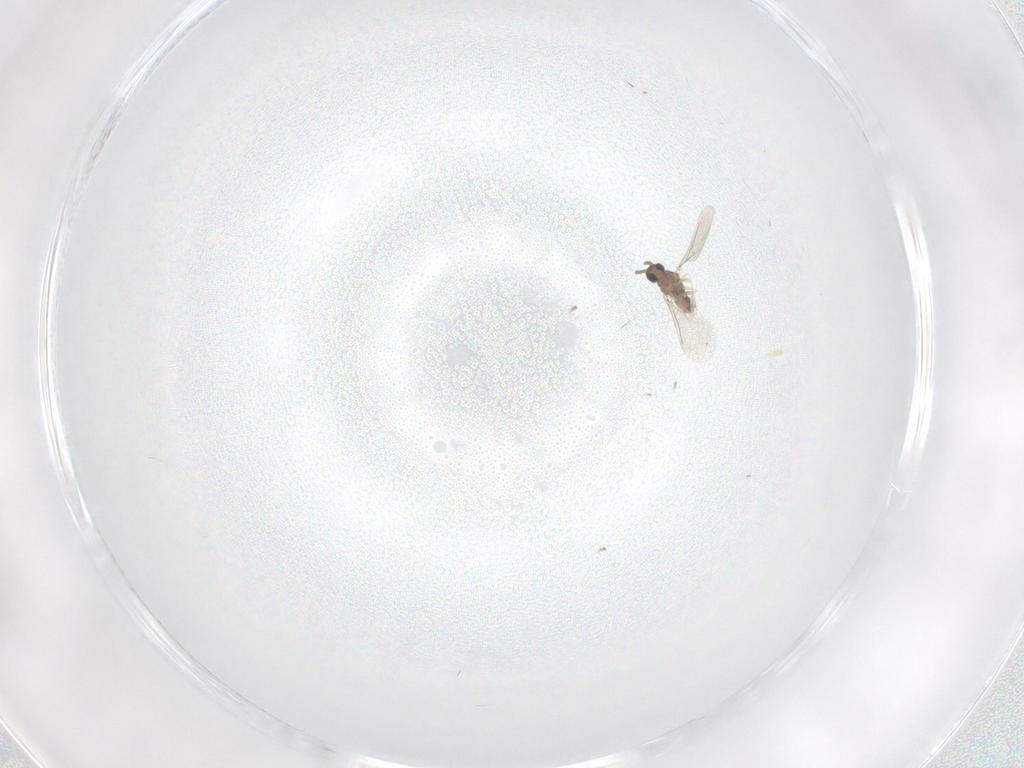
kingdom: Animalia
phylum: Arthropoda
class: Insecta
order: Diptera
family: Cecidomyiidae
